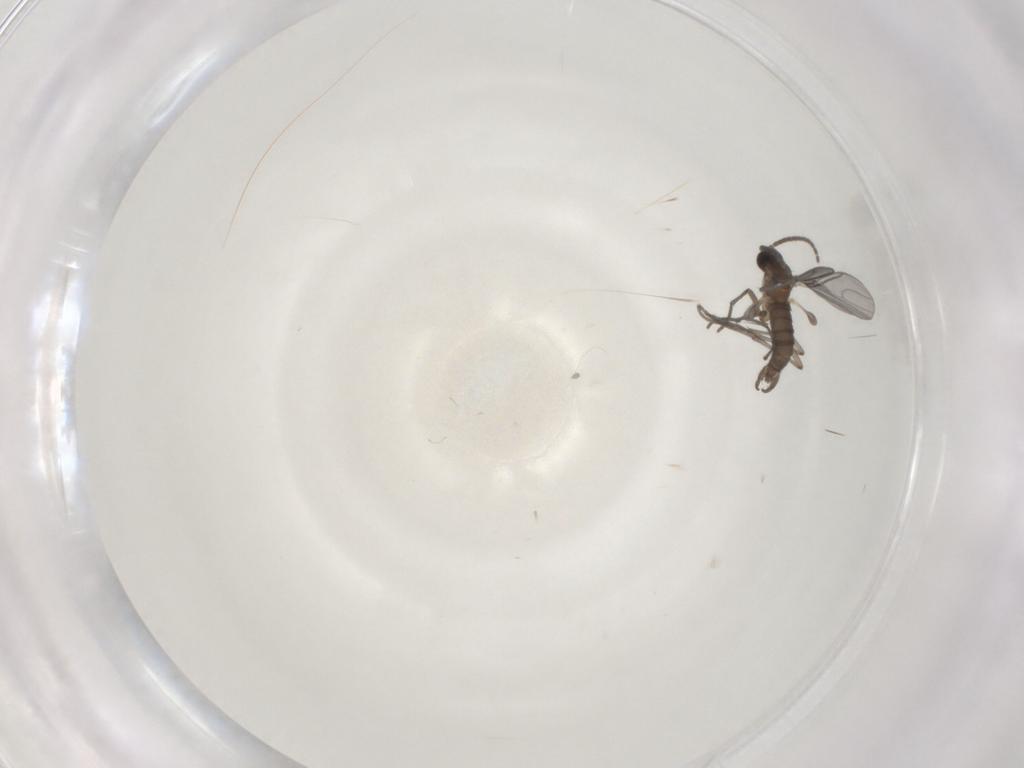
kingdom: Animalia
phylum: Arthropoda
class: Insecta
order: Diptera
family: Sciaridae
